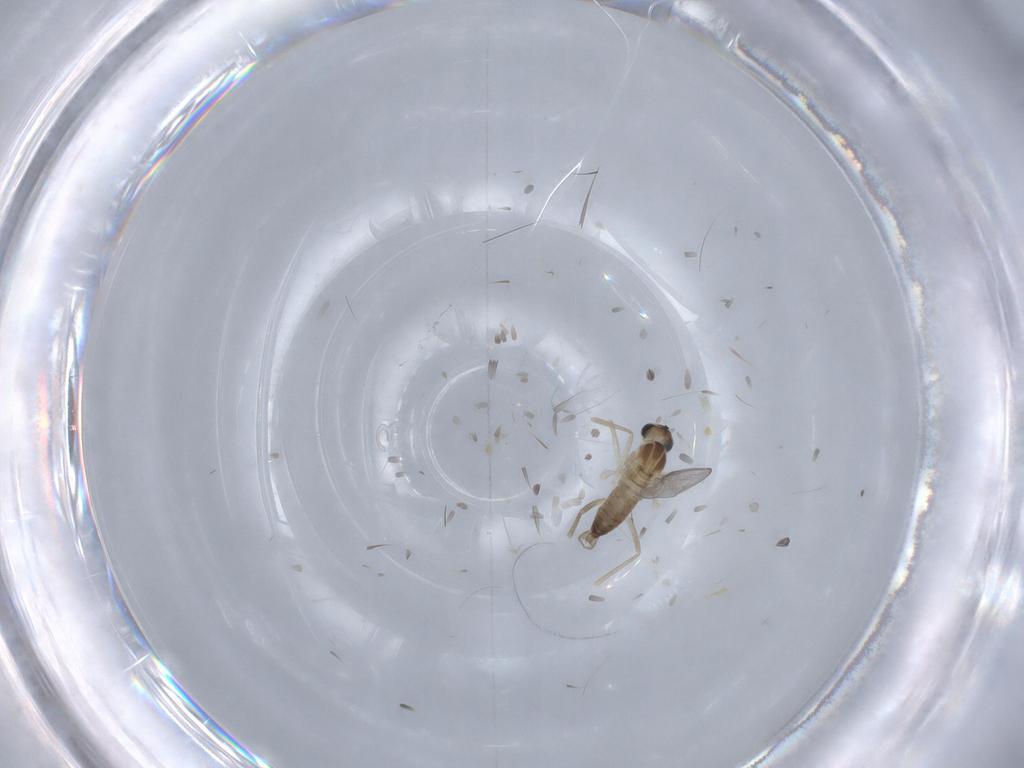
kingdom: Animalia
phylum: Arthropoda
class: Insecta
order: Diptera
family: Cecidomyiidae
